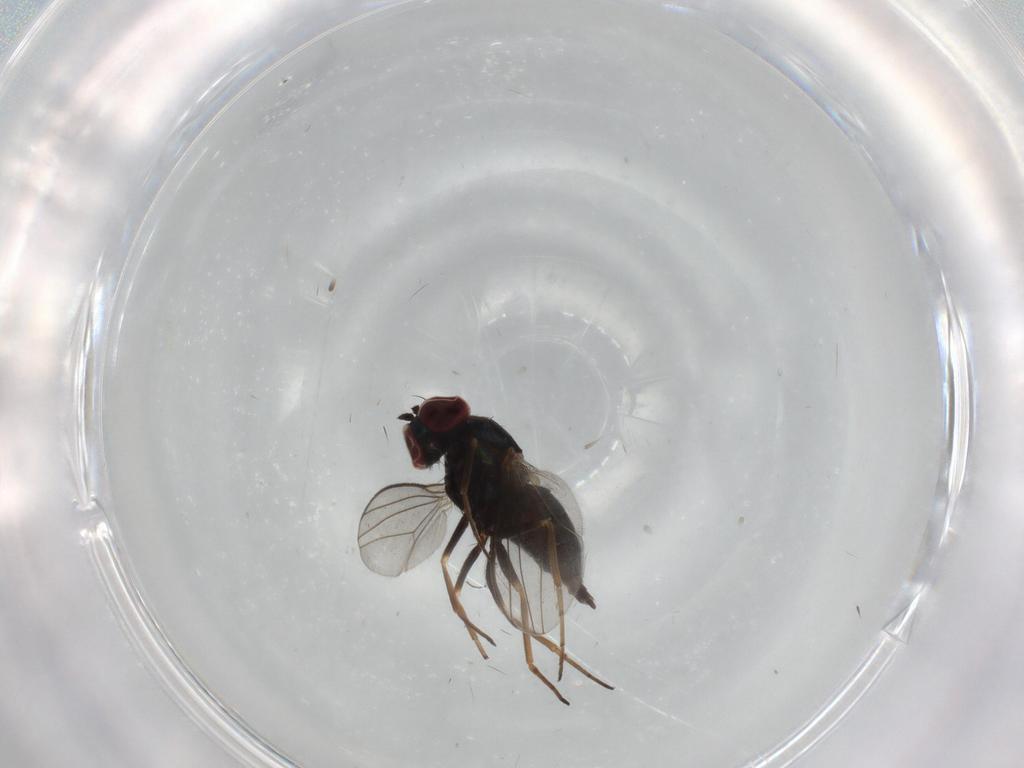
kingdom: Animalia
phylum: Arthropoda
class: Insecta
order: Diptera
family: Dolichopodidae
